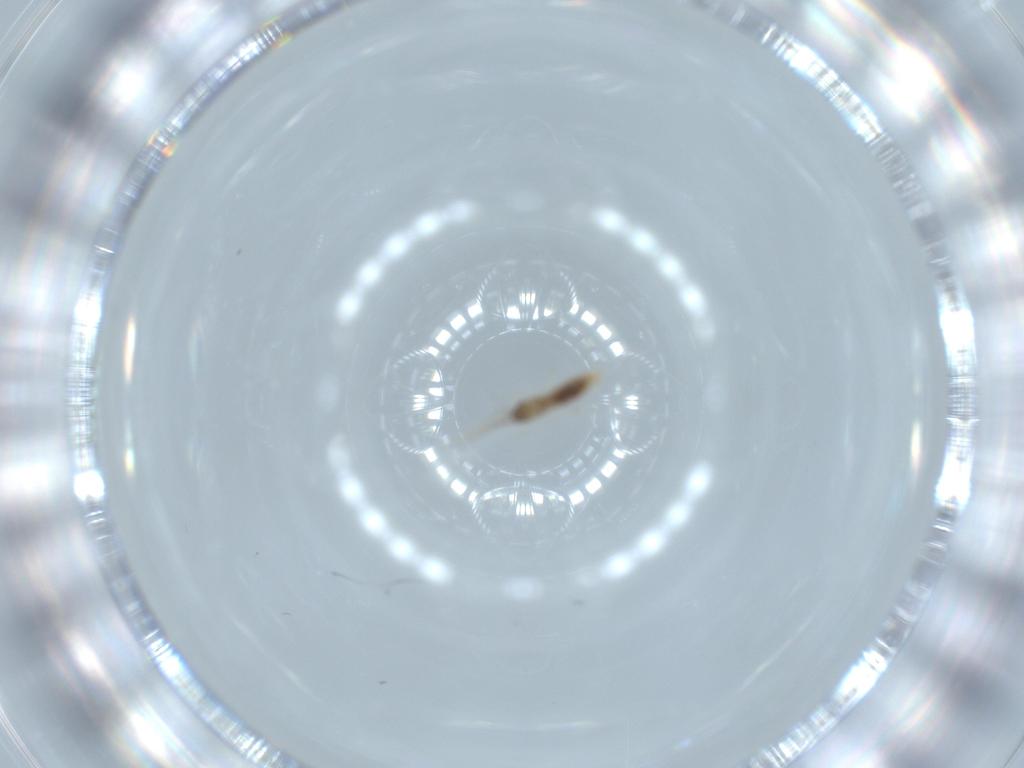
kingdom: Animalia
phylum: Arthropoda
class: Insecta
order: Diptera
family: Cecidomyiidae
